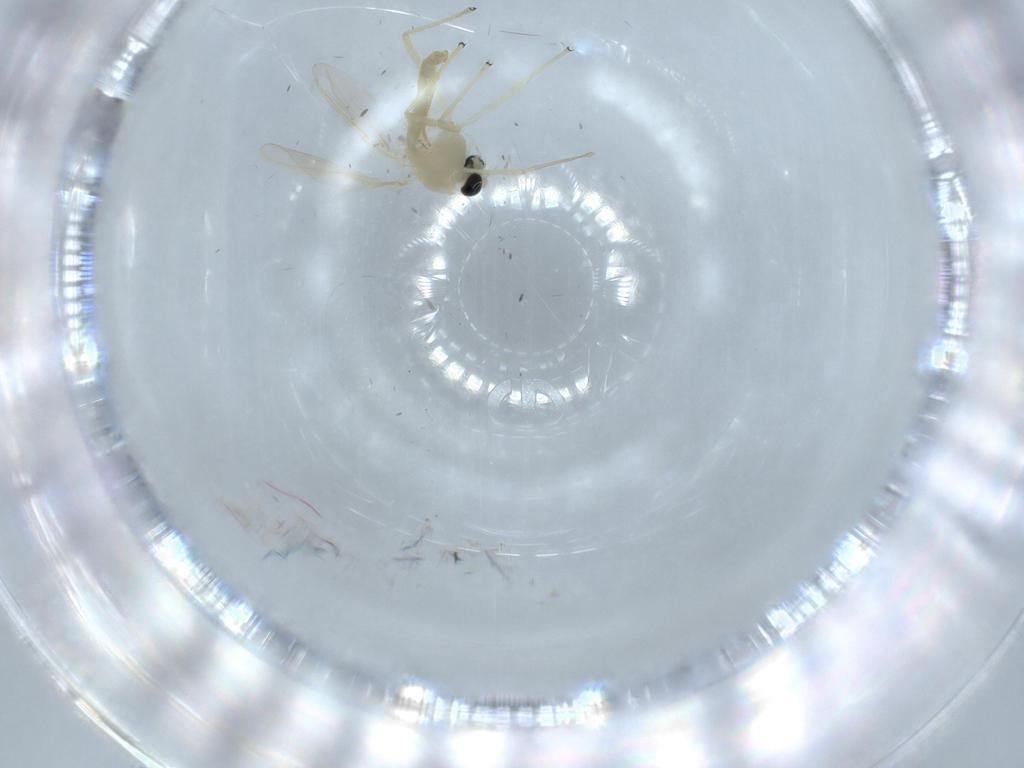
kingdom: Animalia
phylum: Arthropoda
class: Insecta
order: Diptera
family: Chironomidae
